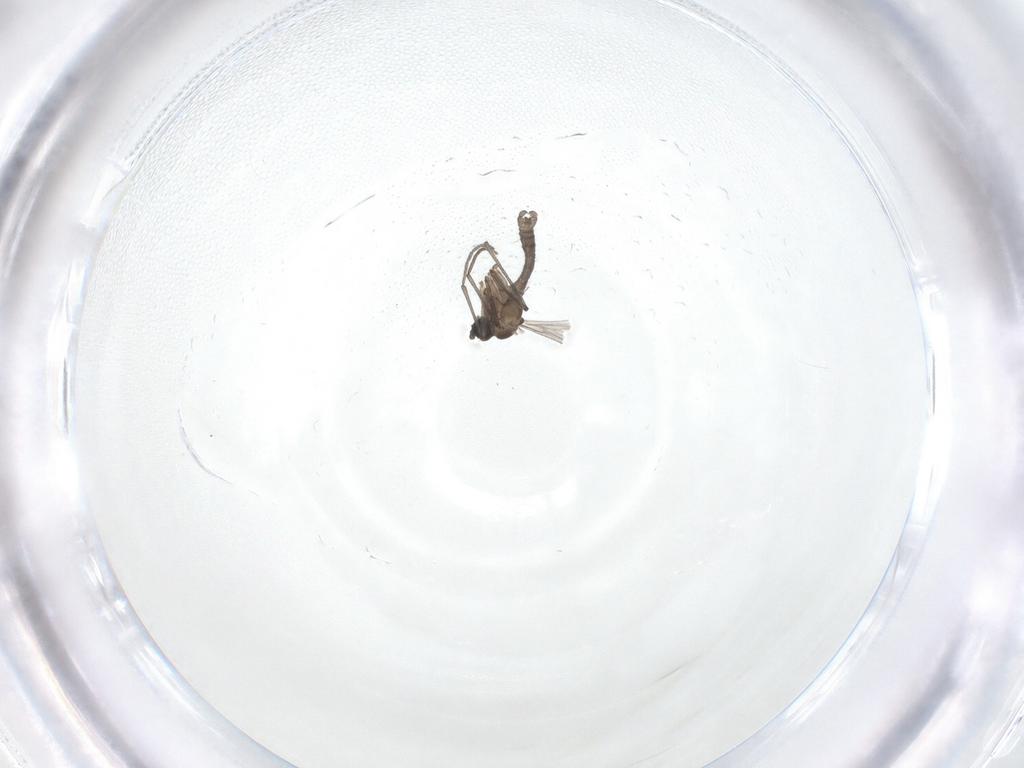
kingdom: Animalia
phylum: Arthropoda
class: Insecta
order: Diptera
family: Sciaridae
